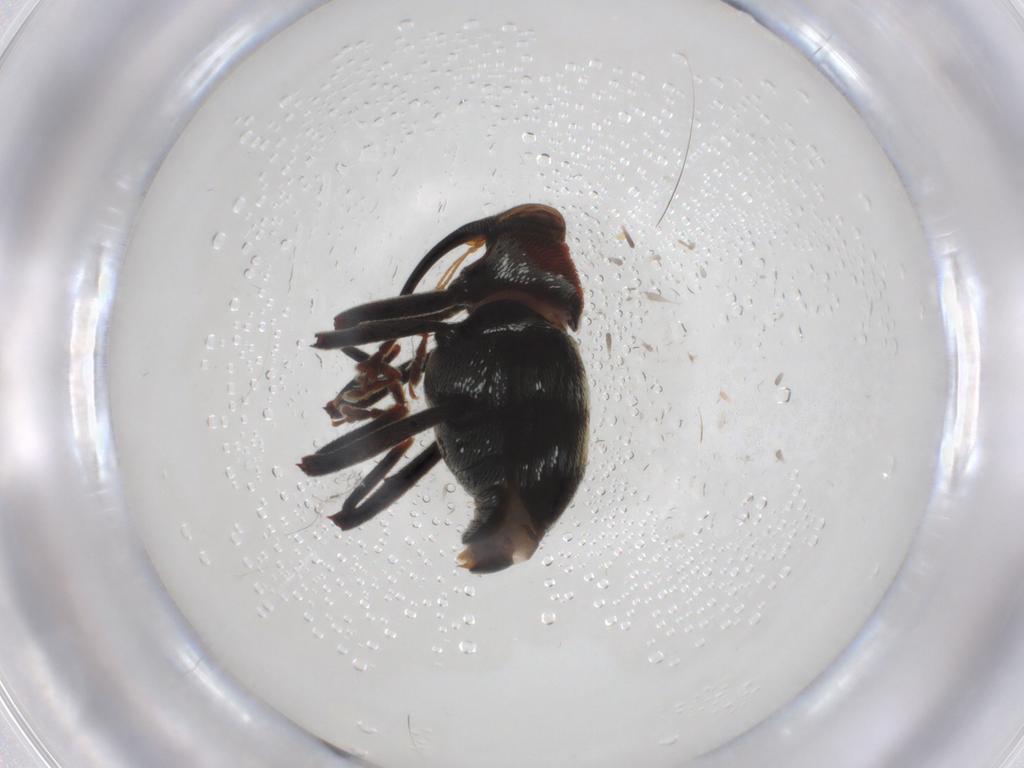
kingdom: Animalia
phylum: Arthropoda
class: Insecta
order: Coleoptera
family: Curculionidae
